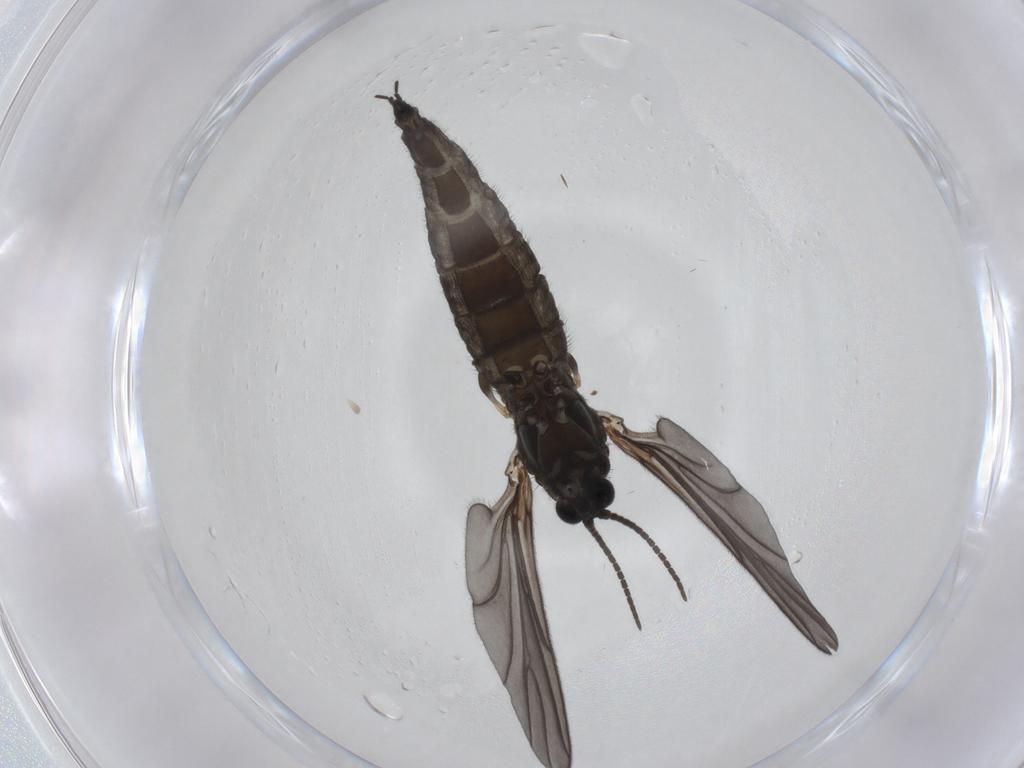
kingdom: Animalia
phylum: Arthropoda
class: Insecta
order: Diptera
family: Sciaridae
